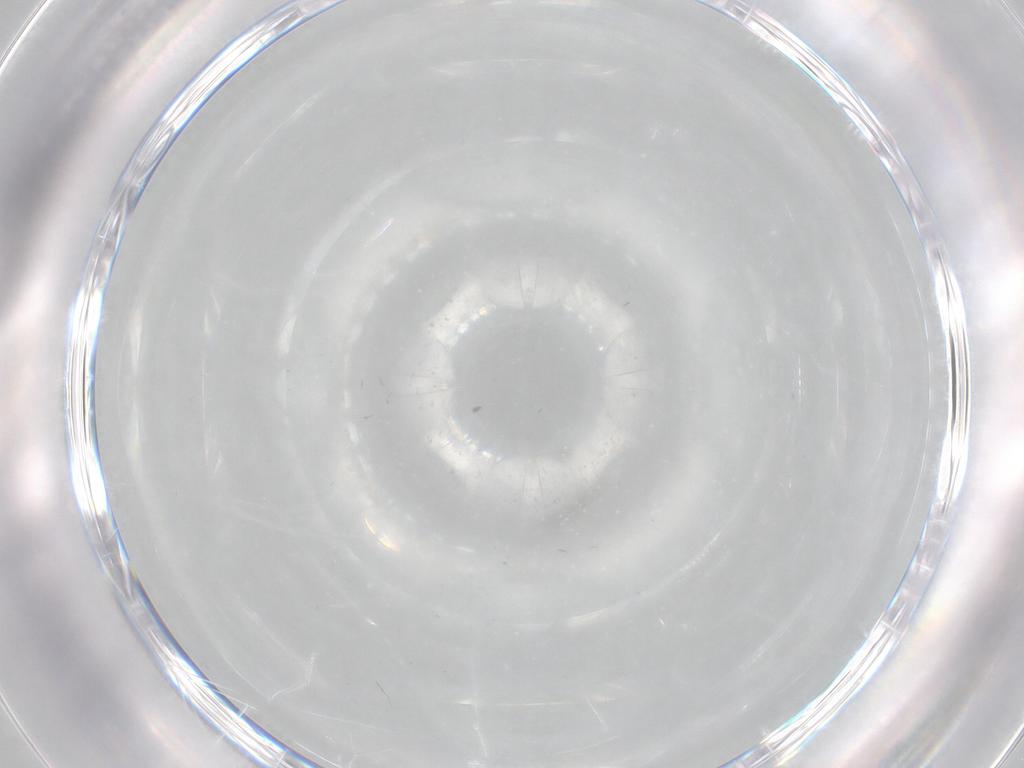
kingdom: Animalia
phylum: Arthropoda
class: Insecta
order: Diptera
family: Chironomidae
